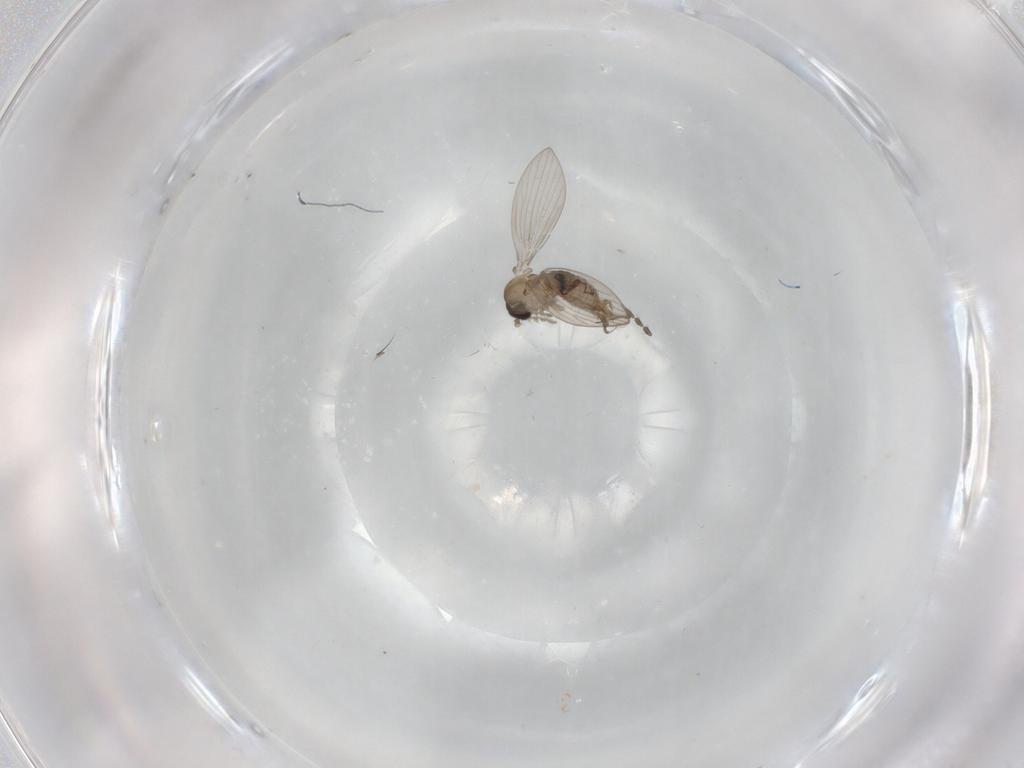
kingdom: Animalia
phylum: Arthropoda
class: Insecta
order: Diptera
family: Psychodidae
